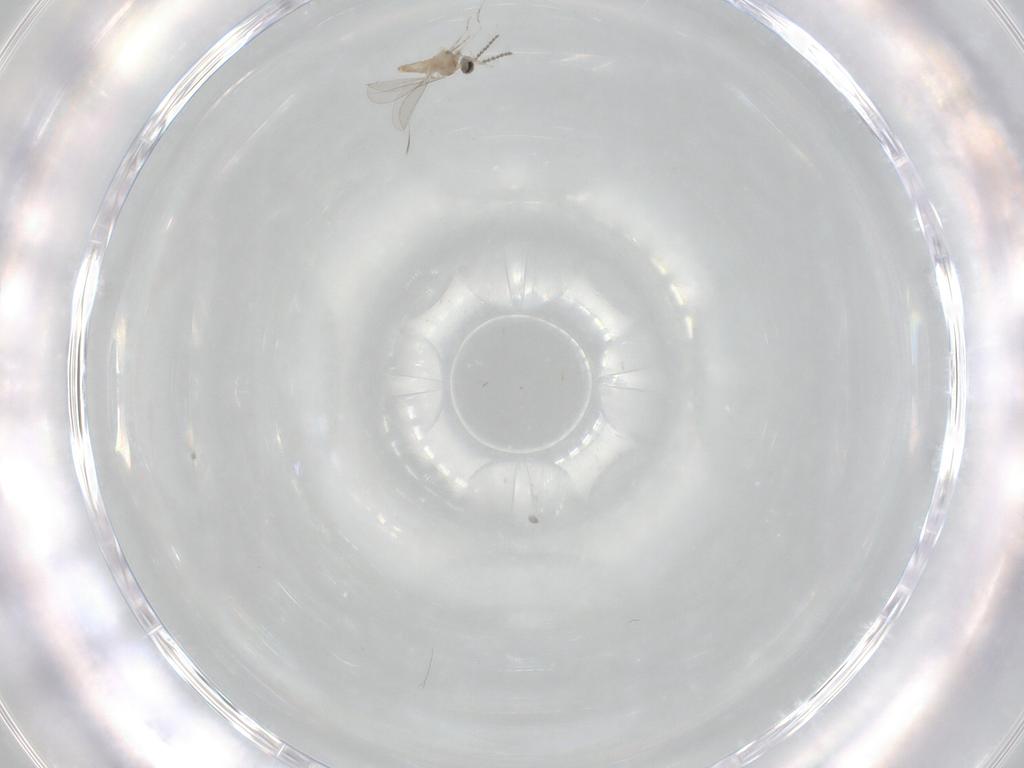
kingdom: Animalia
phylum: Arthropoda
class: Insecta
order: Diptera
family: Cecidomyiidae
